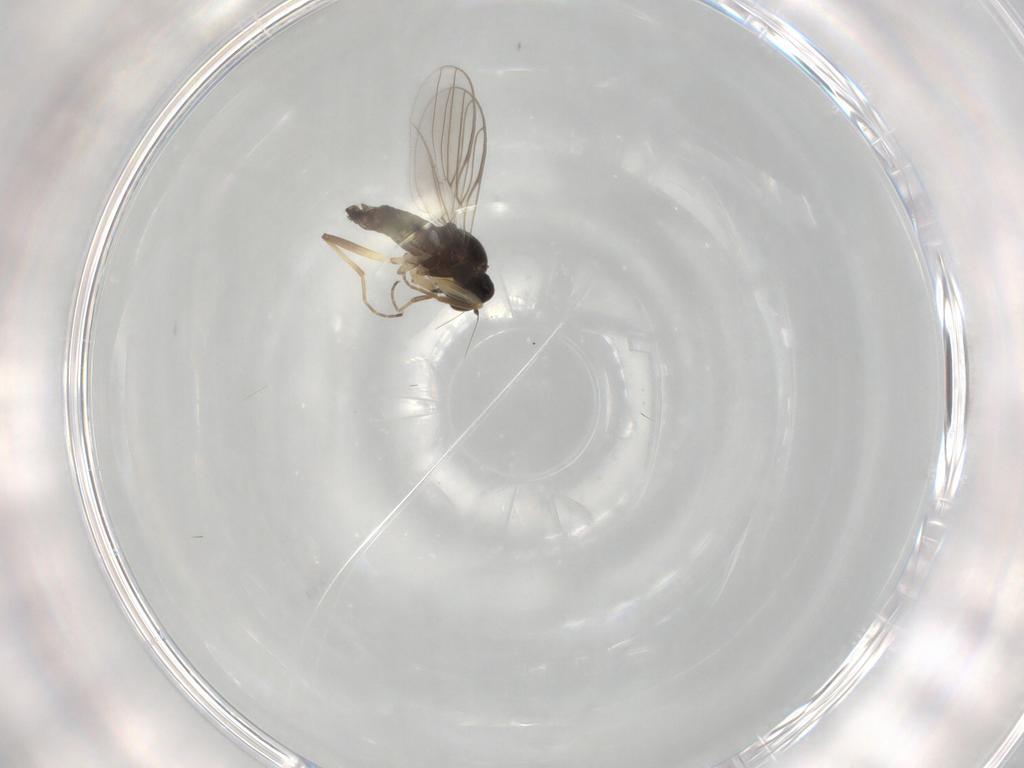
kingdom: Animalia
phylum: Arthropoda
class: Insecta
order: Diptera
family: Hybotidae
